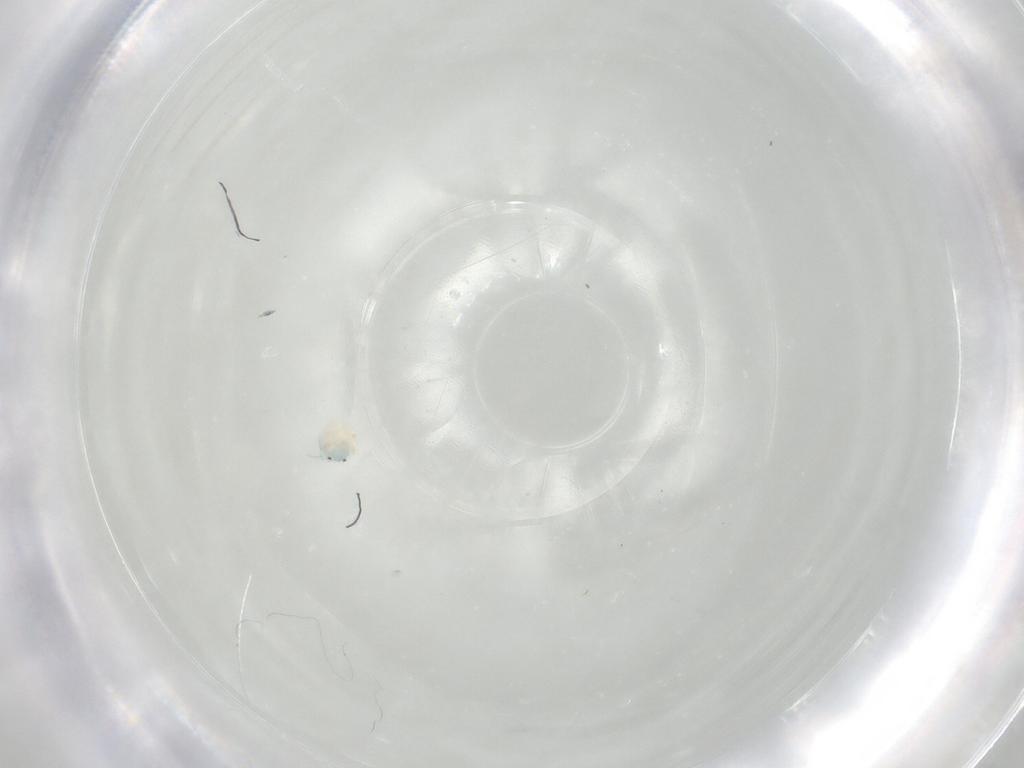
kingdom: Animalia
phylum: Arthropoda
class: Arachnida
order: Trombidiformes
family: Arrenuridae
